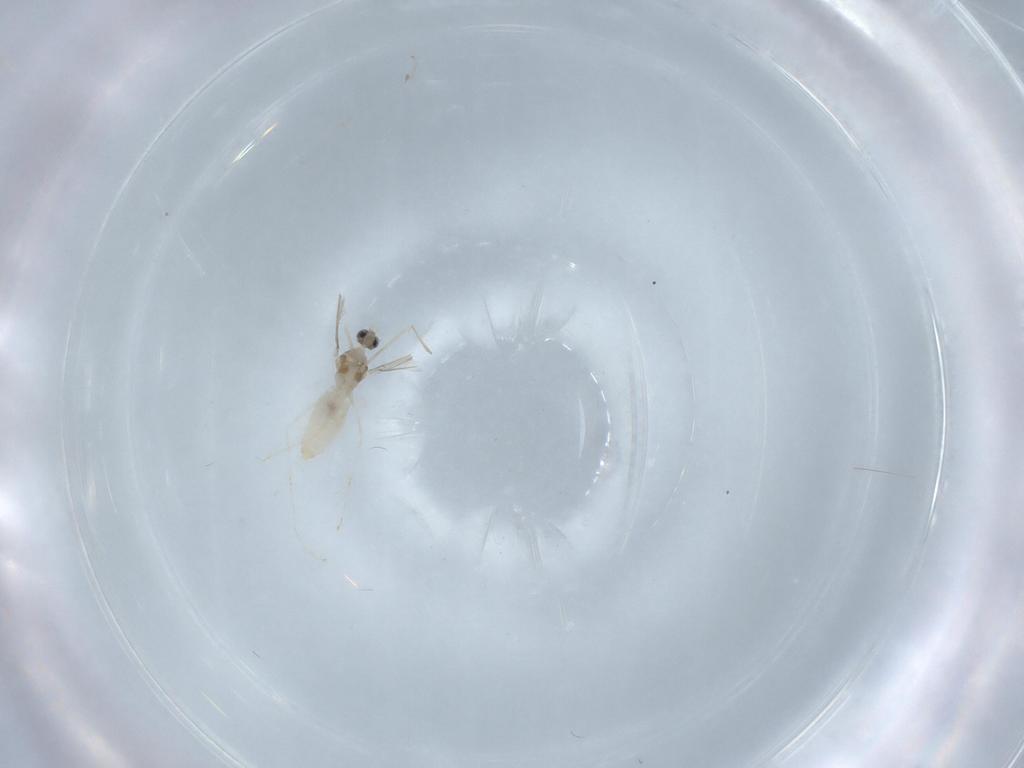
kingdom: Animalia
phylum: Arthropoda
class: Insecta
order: Diptera
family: Cecidomyiidae
